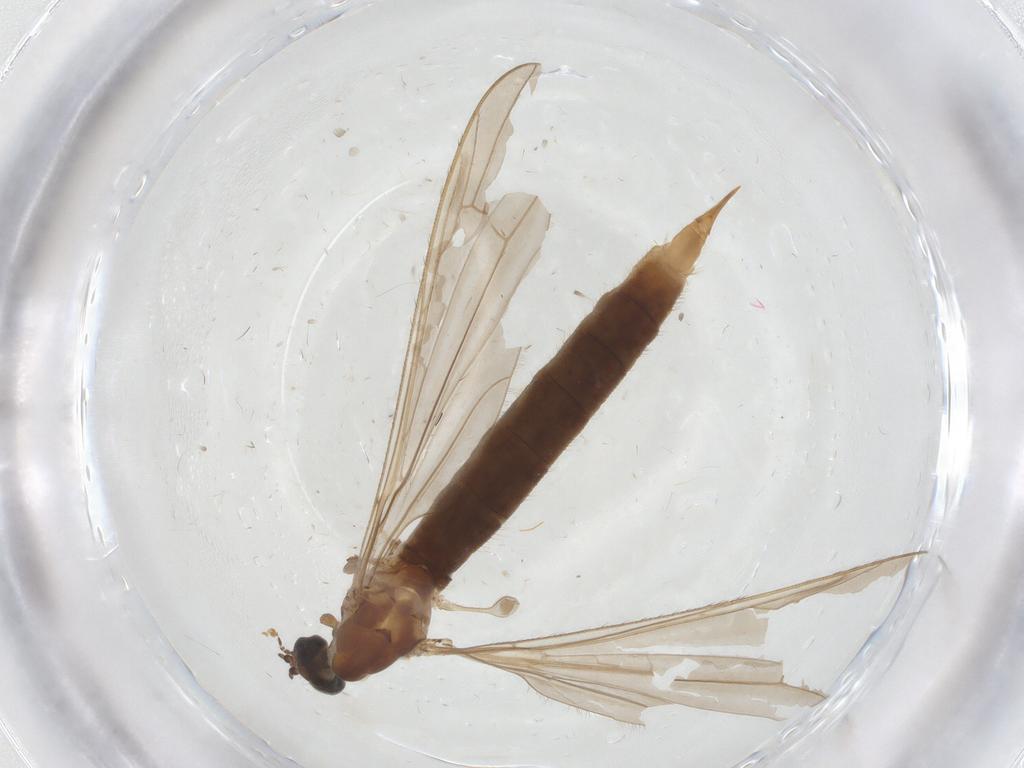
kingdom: Animalia
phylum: Arthropoda
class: Insecta
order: Diptera
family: Limoniidae
